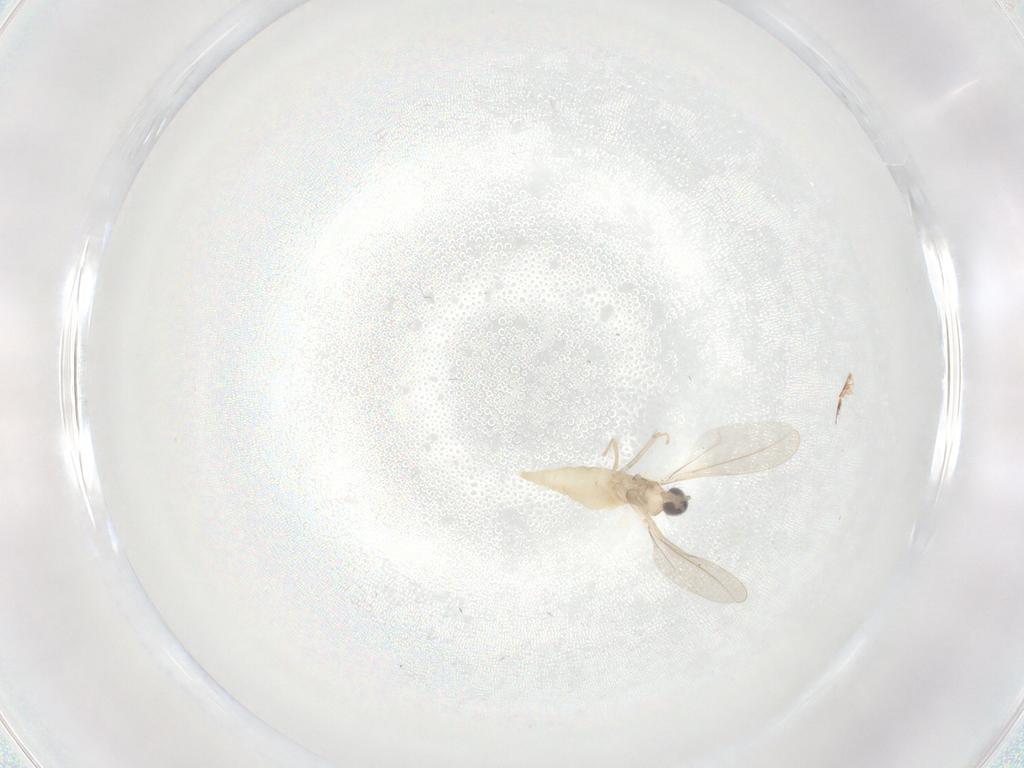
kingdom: Animalia
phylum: Arthropoda
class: Insecta
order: Diptera
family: Cecidomyiidae
